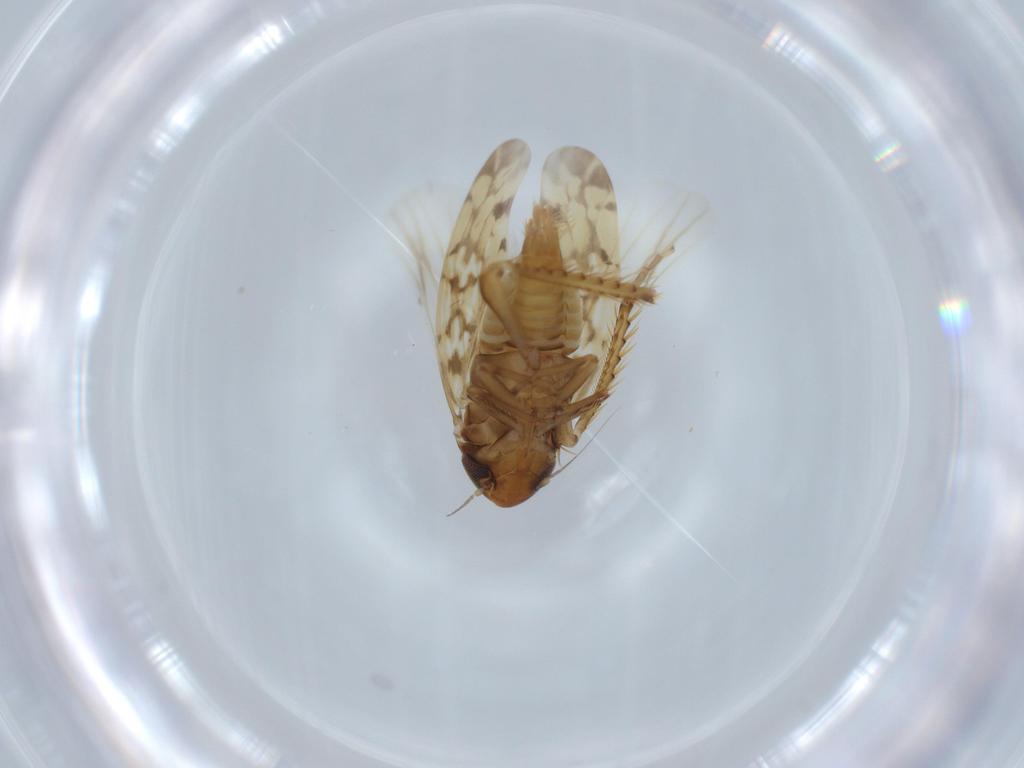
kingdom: Animalia
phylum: Arthropoda
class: Insecta
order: Hemiptera
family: Cicadellidae
